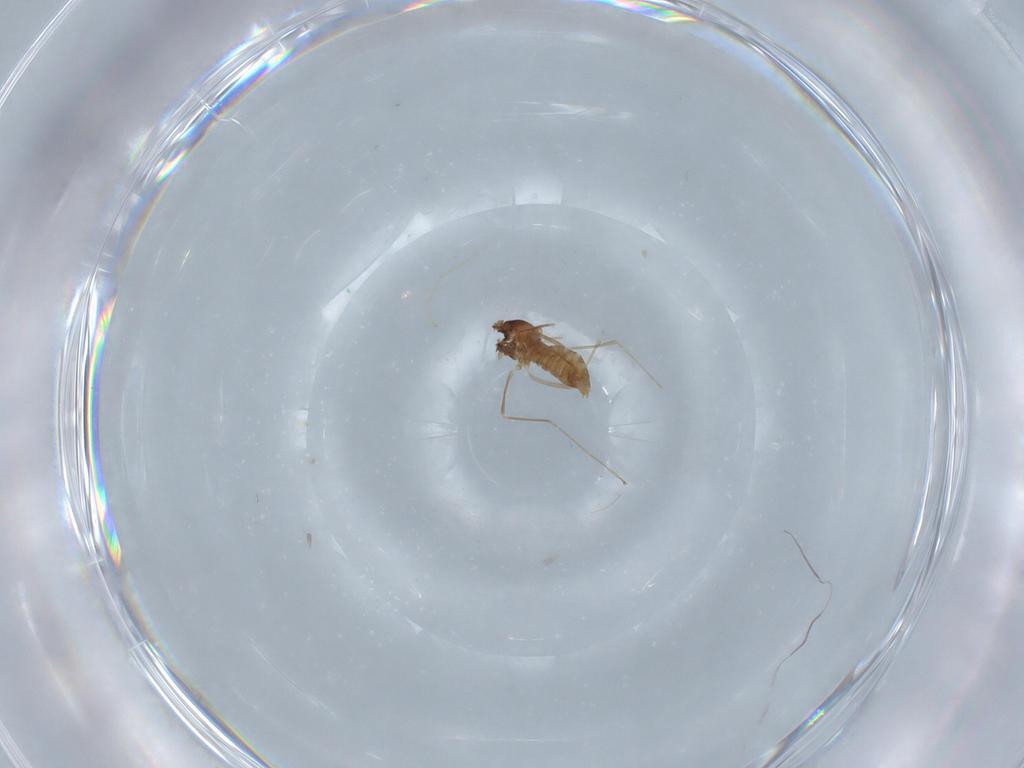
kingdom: Animalia
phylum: Arthropoda
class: Insecta
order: Diptera
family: Cecidomyiidae
